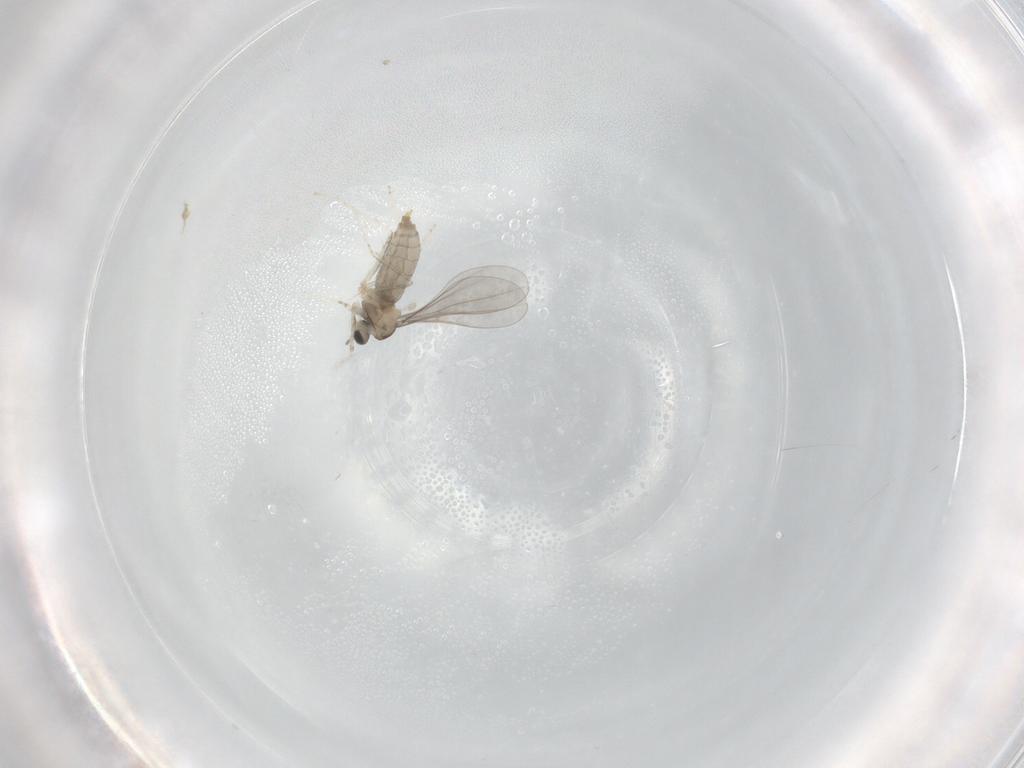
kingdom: Animalia
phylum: Arthropoda
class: Insecta
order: Diptera
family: Cecidomyiidae
